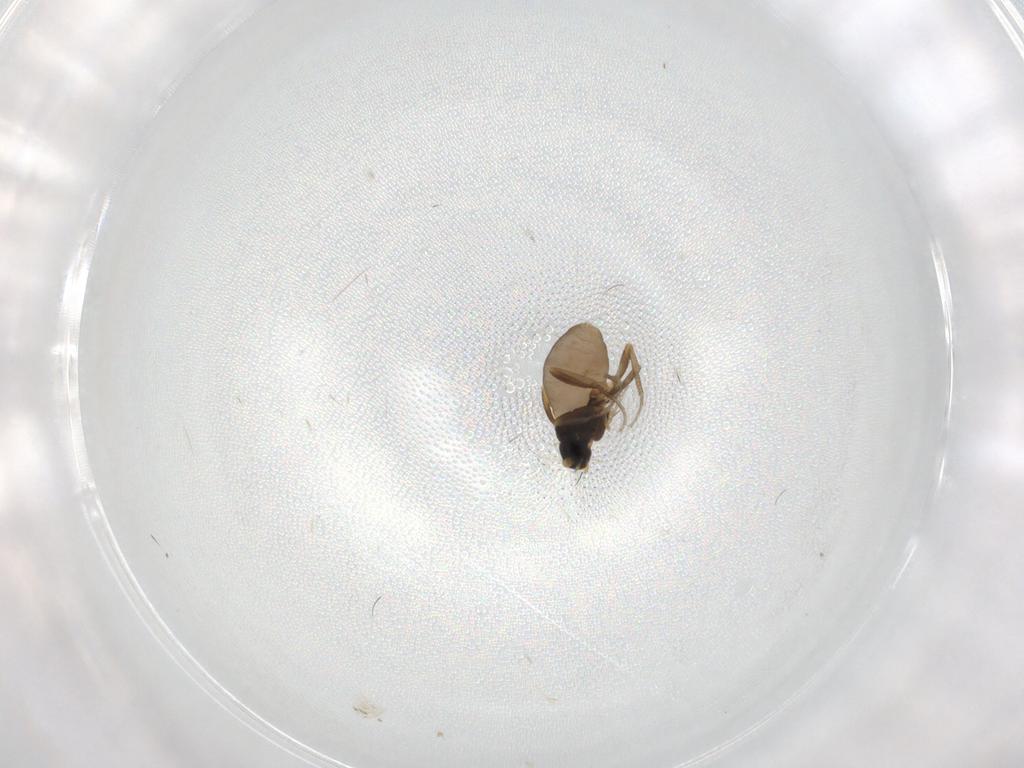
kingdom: Animalia
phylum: Arthropoda
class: Insecta
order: Diptera
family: Phoridae
